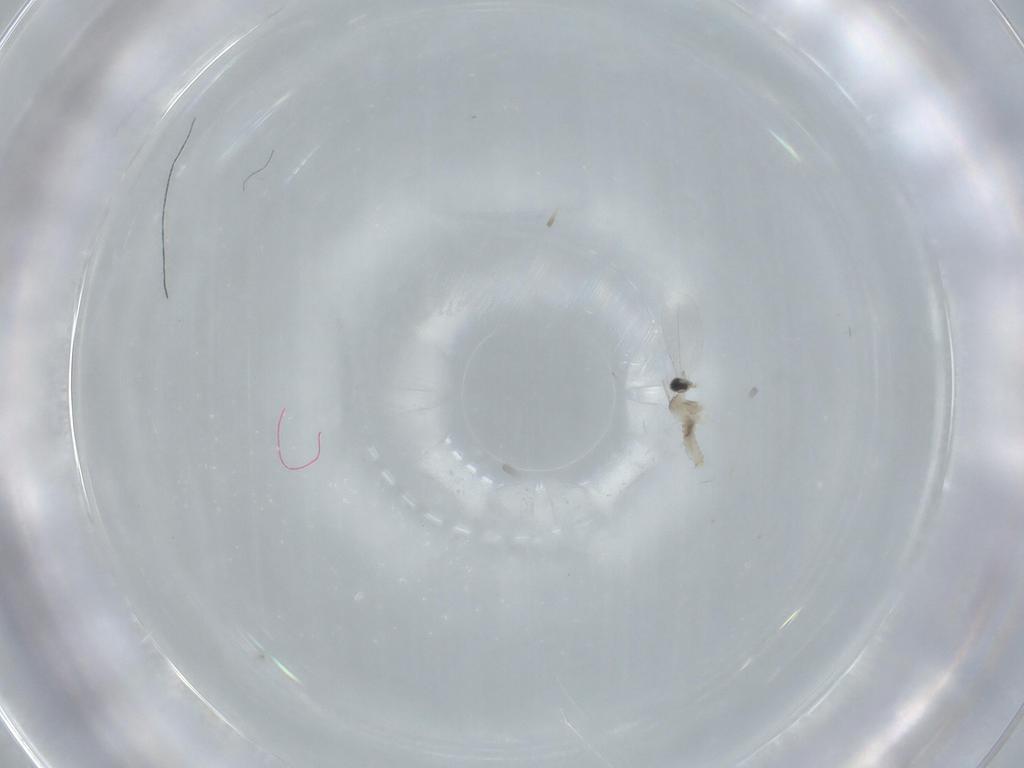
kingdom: Animalia
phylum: Arthropoda
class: Insecta
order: Diptera
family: Cecidomyiidae
